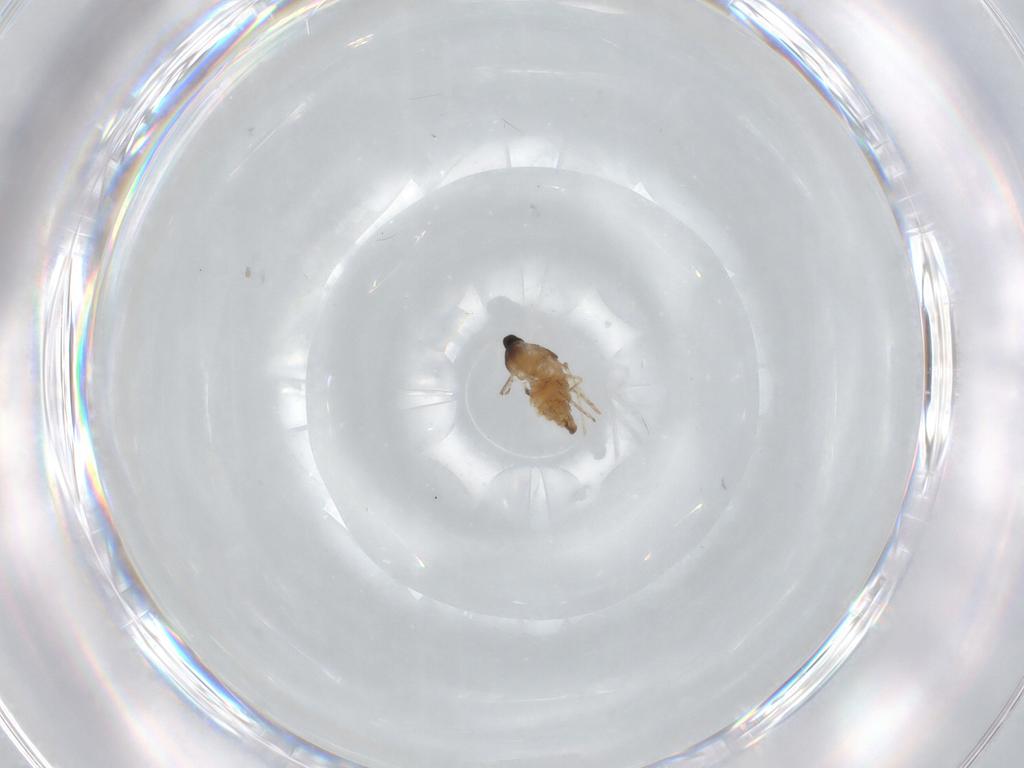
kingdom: Animalia
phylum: Arthropoda
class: Insecta
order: Diptera
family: Cecidomyiidae
